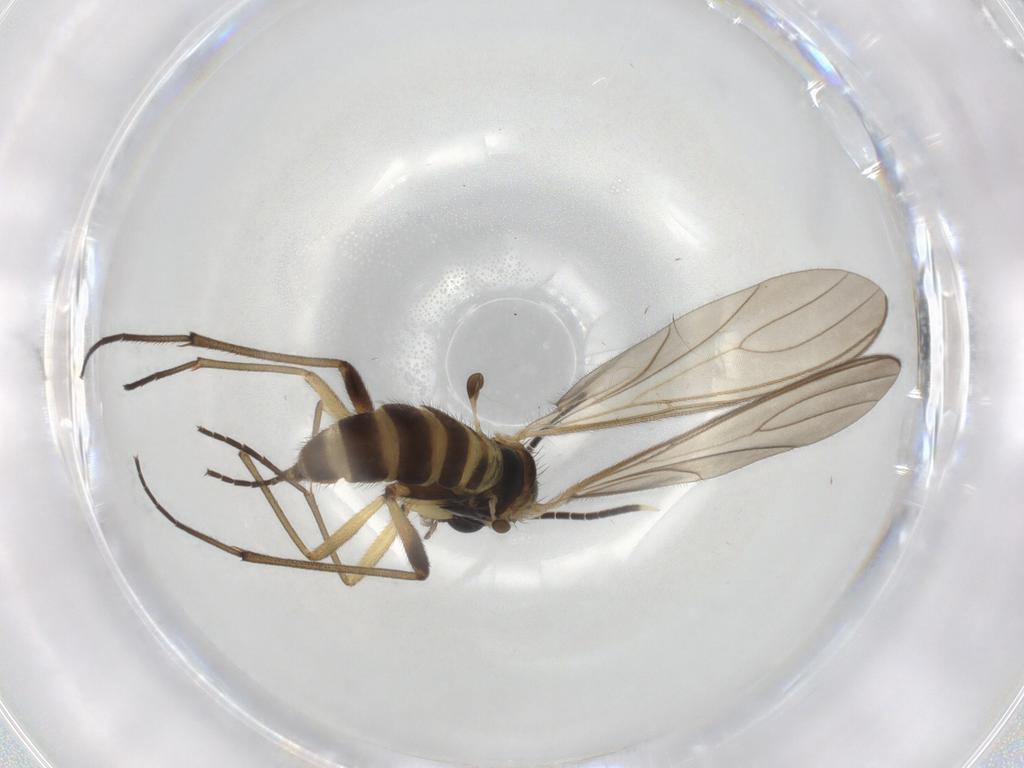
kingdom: Animalia
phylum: Arthropoda
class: Insecta
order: Diptera
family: Sciaridae
